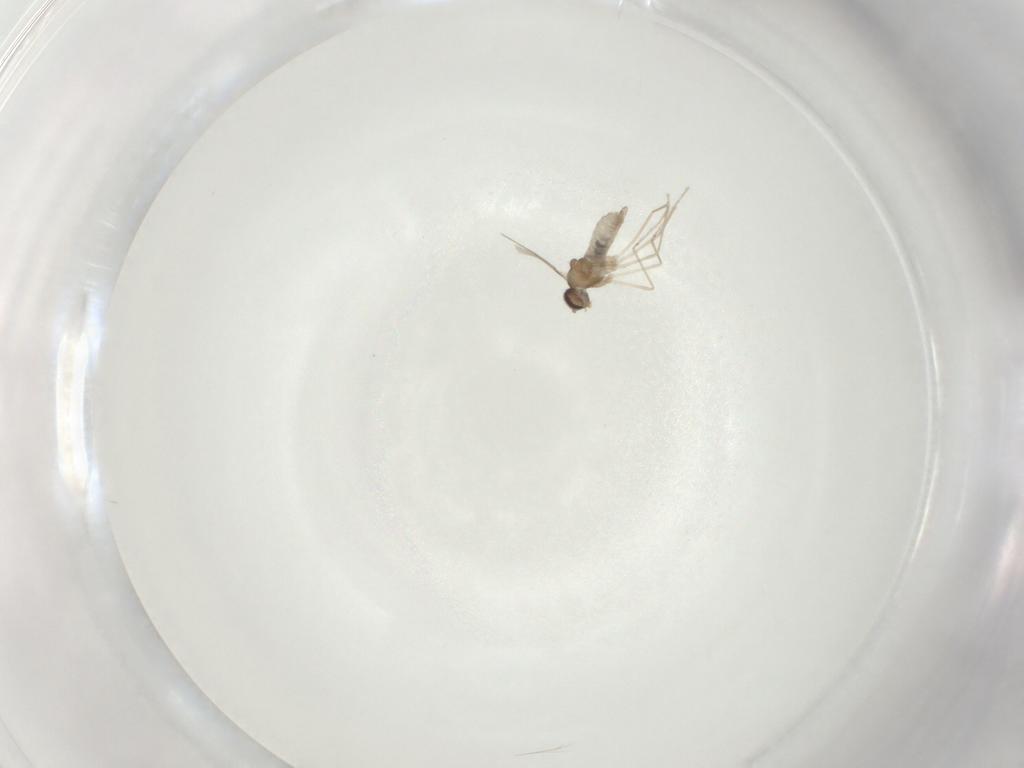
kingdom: Animalia
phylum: Arthropoda
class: Insecta
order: Diptera
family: Cecidomyiidae
